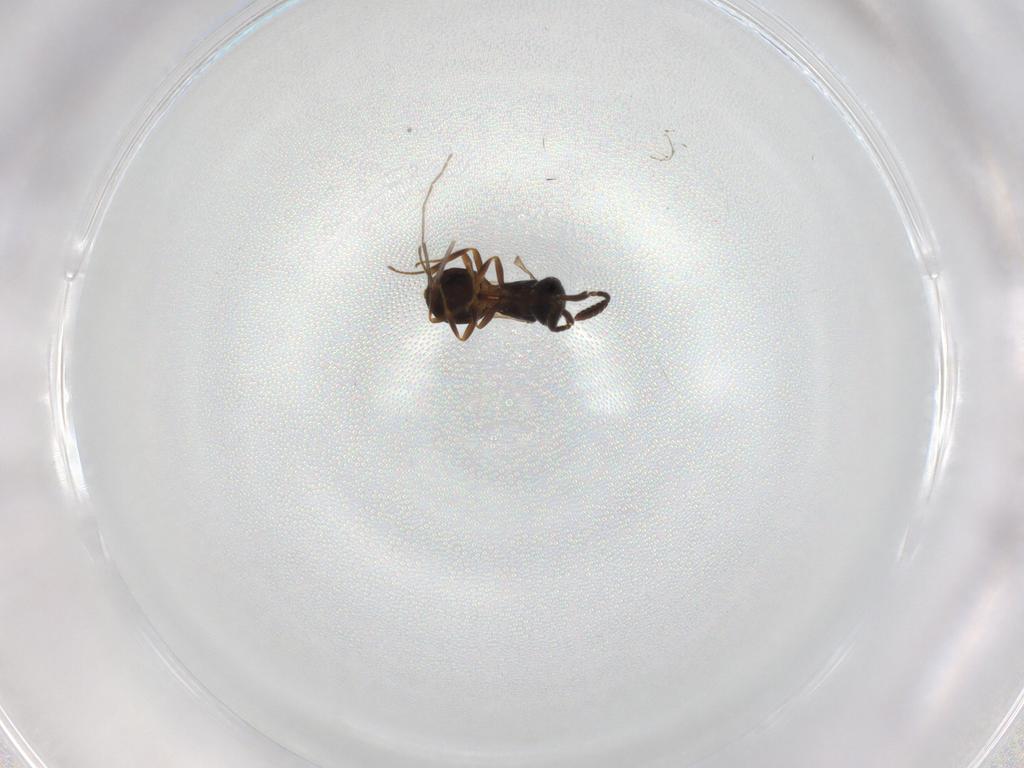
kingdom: Animalia
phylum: Arthropoda
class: Insecta
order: Hymenoptera
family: Scelionidae
